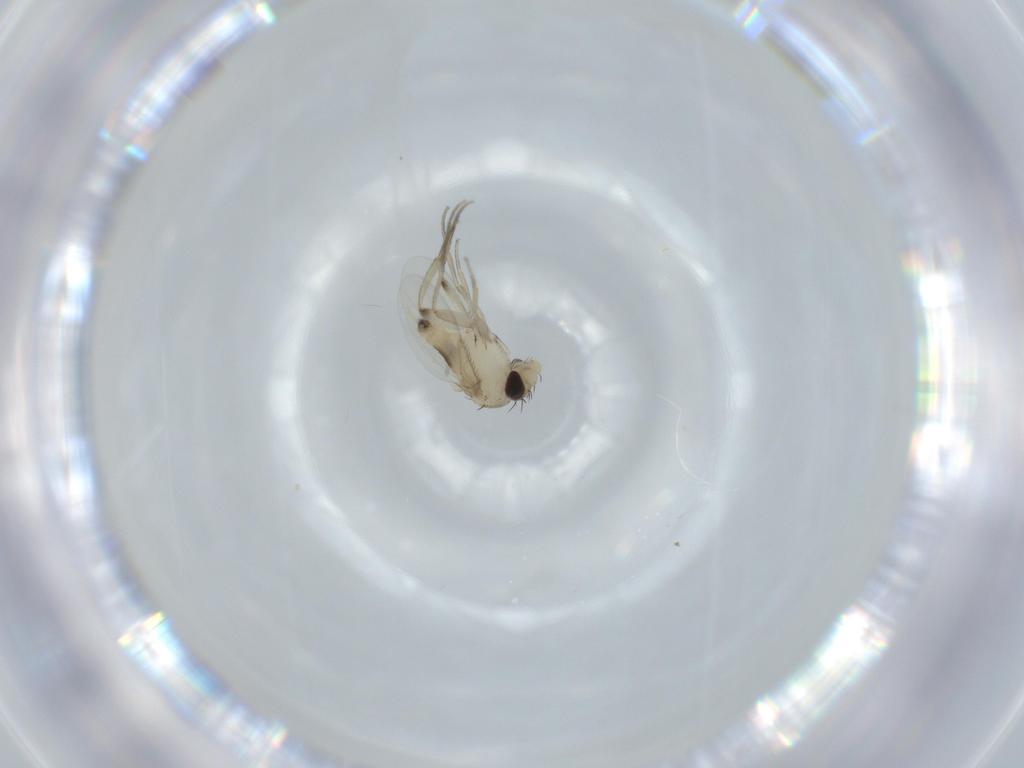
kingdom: Animalia
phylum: Arthropoda
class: Insecta
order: Diptera
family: Phoridae
